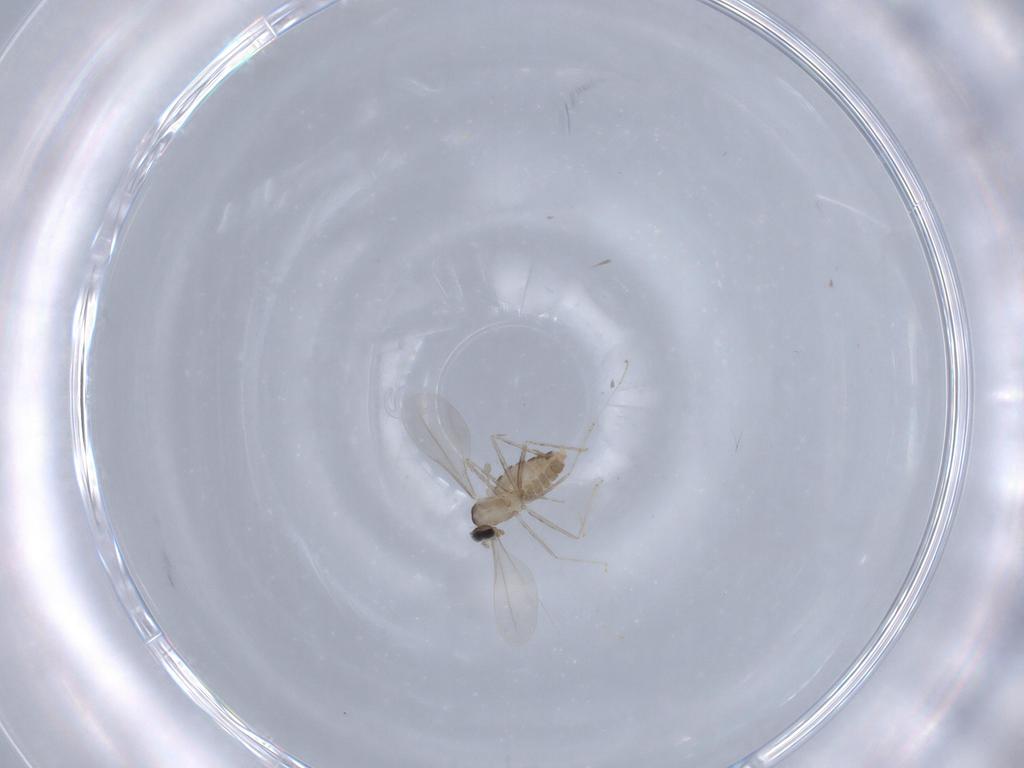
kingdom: Animalia
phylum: Arthropoda
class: Insecta
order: Diptera
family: Cecidomyiidae
